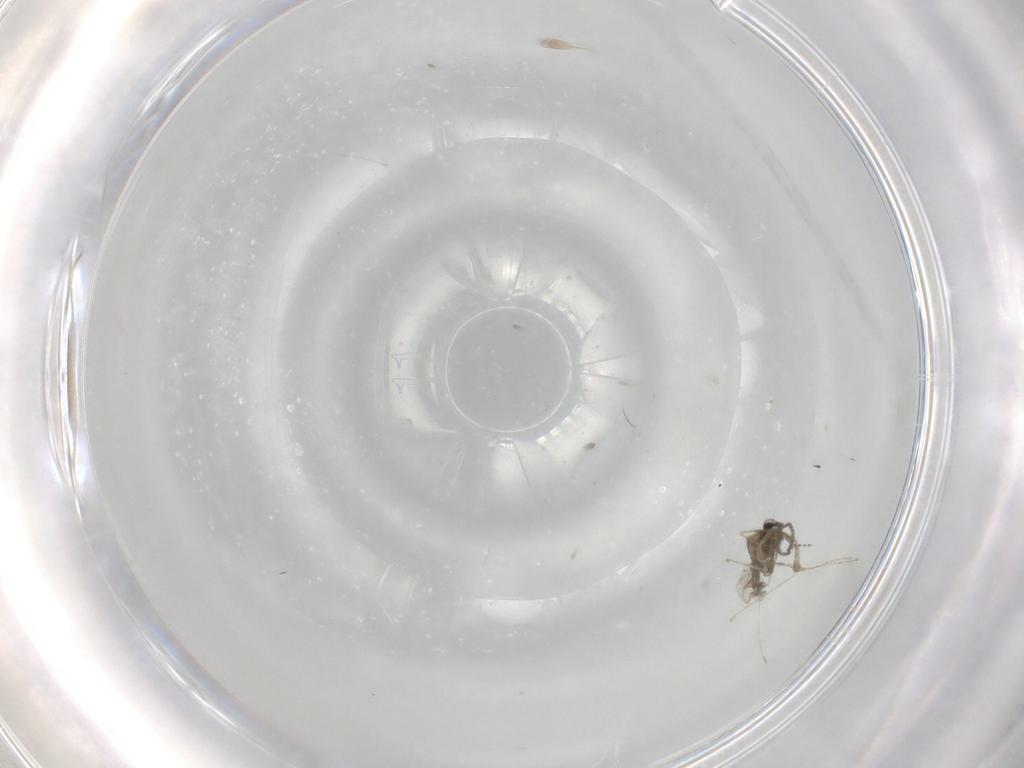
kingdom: Animalia
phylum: Arthropoda
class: Insecta
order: Diptera
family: Cecidomyiidae
